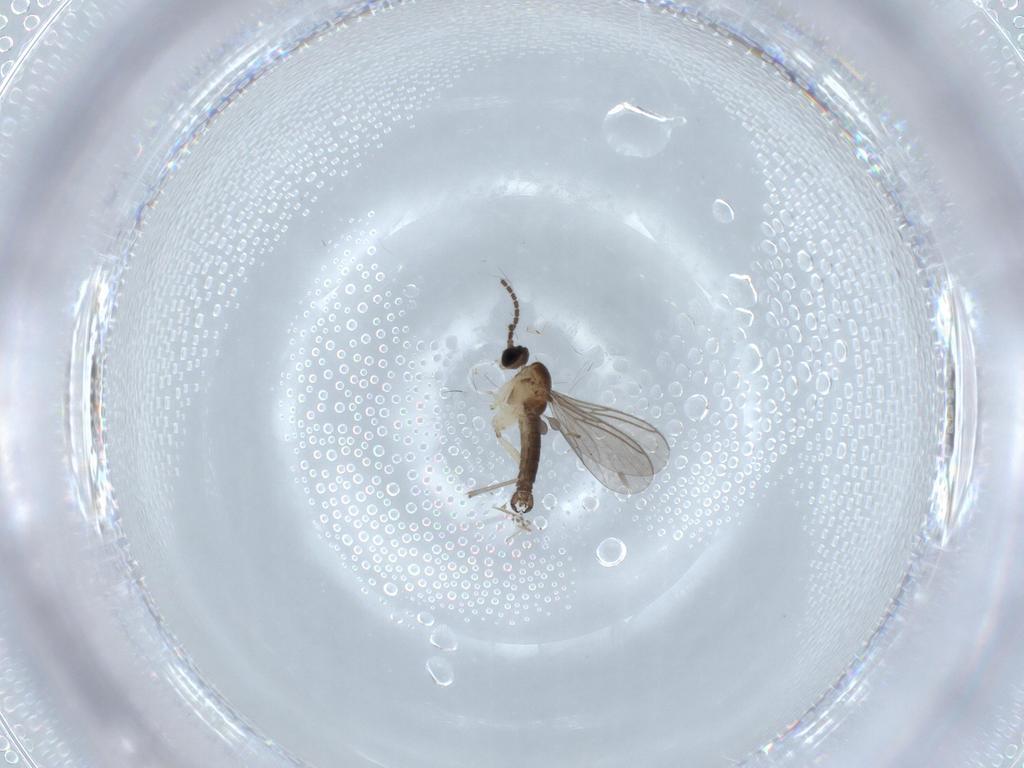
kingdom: Animalia
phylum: Arthropoda
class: Insecta
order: Diptera
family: Sciaridae
